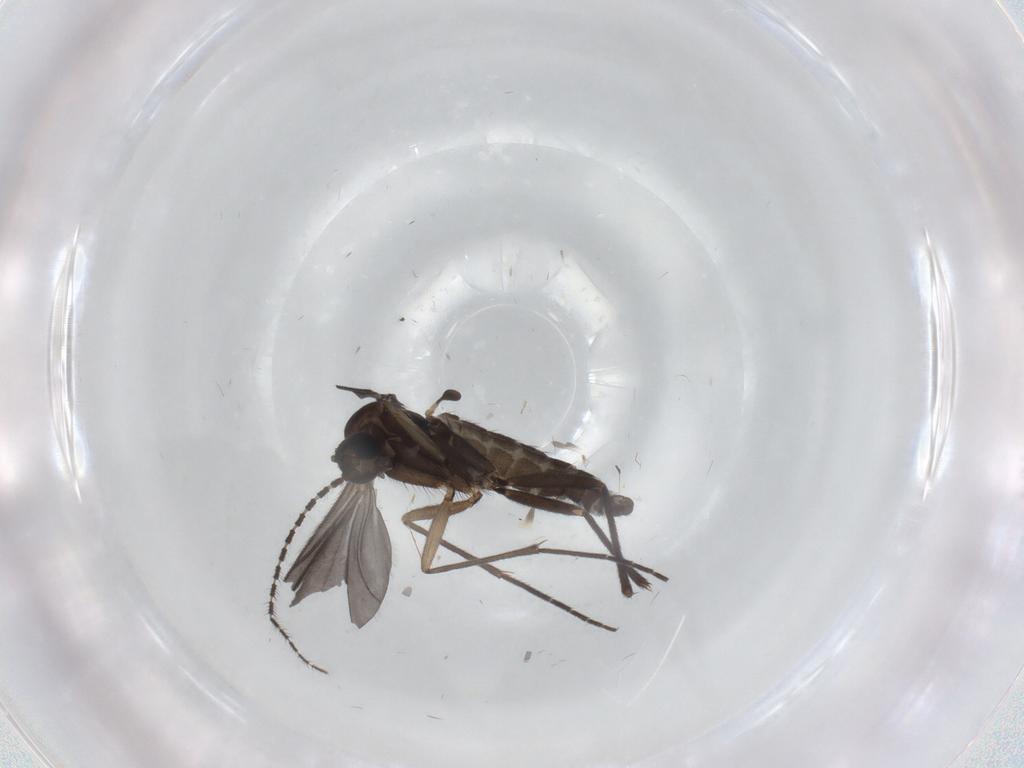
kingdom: Animalia
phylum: Arthropoda
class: Insecta
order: Diptera
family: Sciaridae
